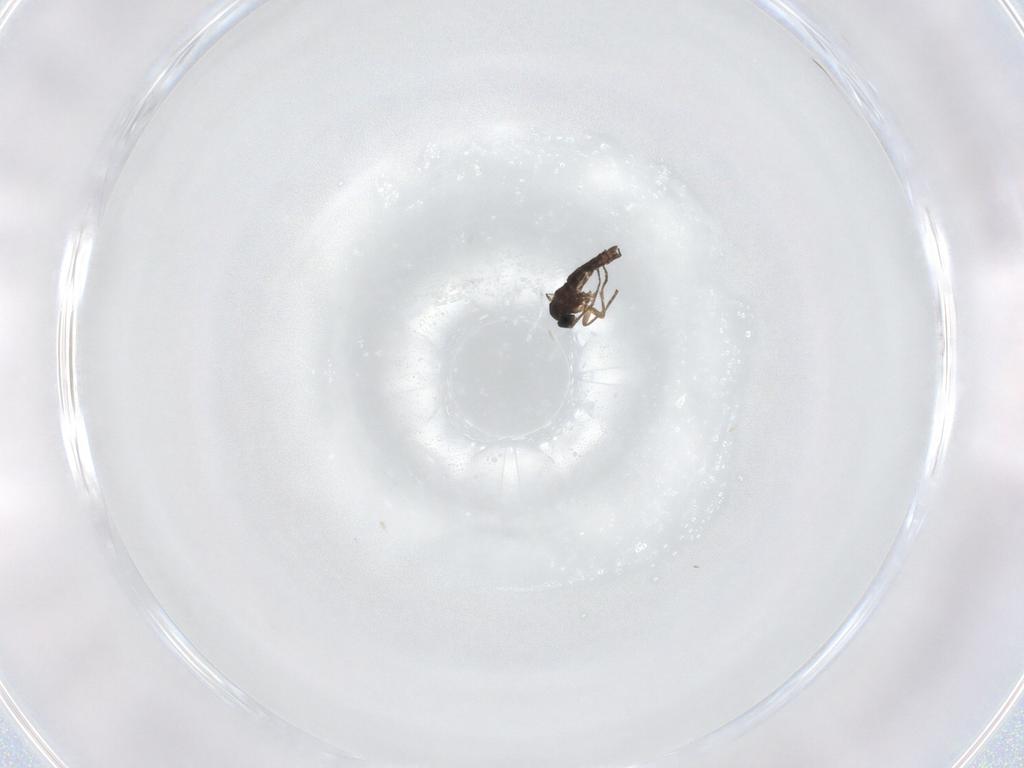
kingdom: Animalia
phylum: Arthropoda
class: Insecta
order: Diptera
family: Sciaridae
